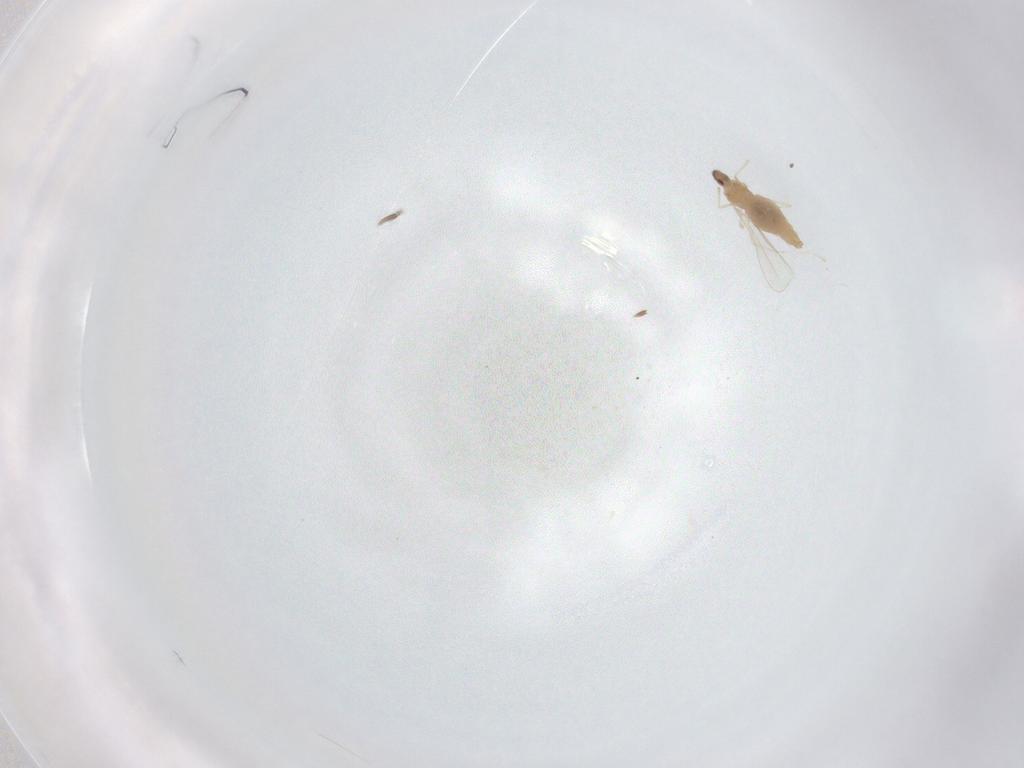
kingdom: Animalia
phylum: Arthropoda
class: Insecta
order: Diptera
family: Cecidomyiidae
